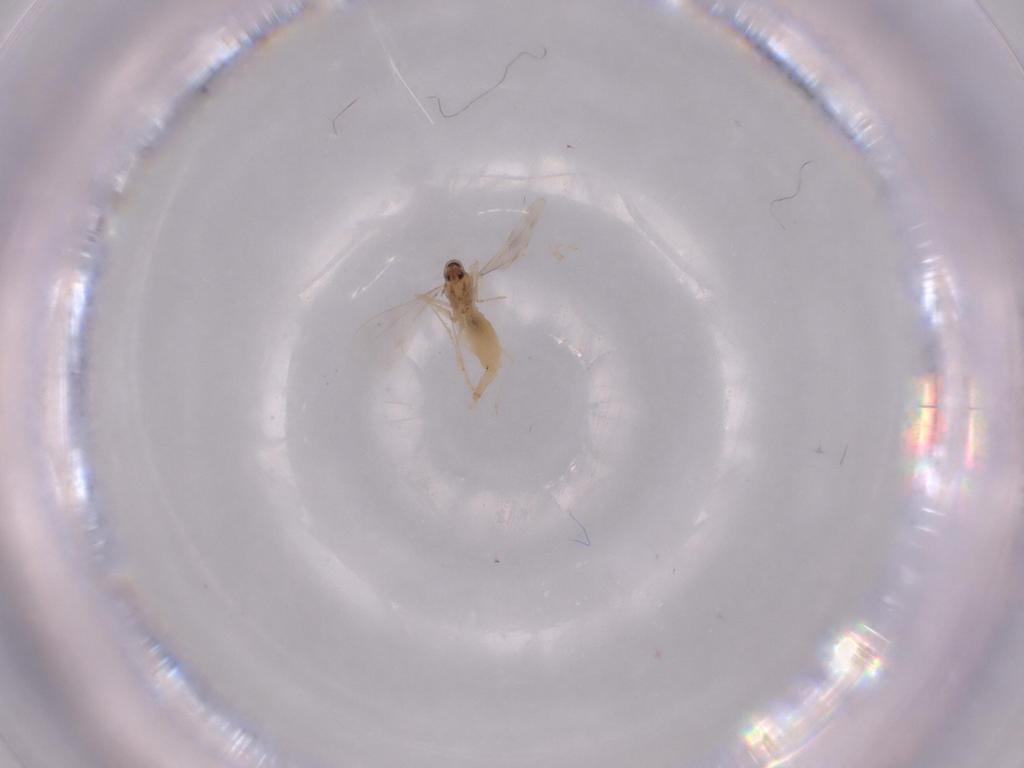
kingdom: Animalia
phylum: Arthropoda
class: Insecta
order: Diptera
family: Cecidomyiidae
